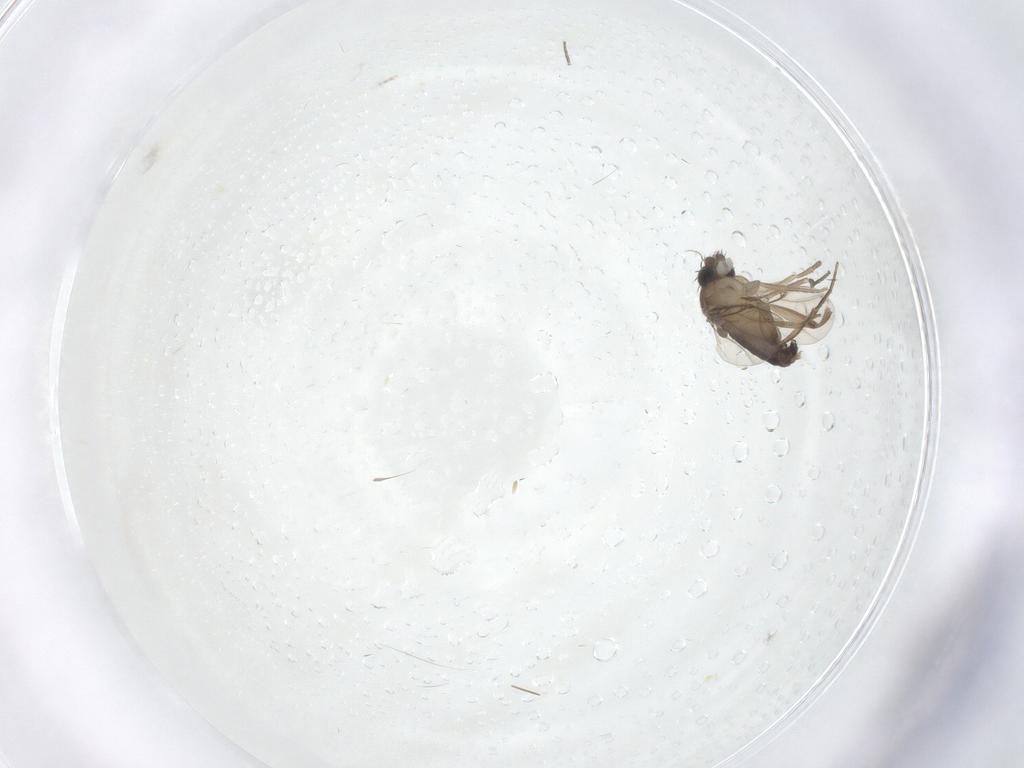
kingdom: Animalia
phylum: Arthropoda
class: Insecta
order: Diptera
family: Phoridae
